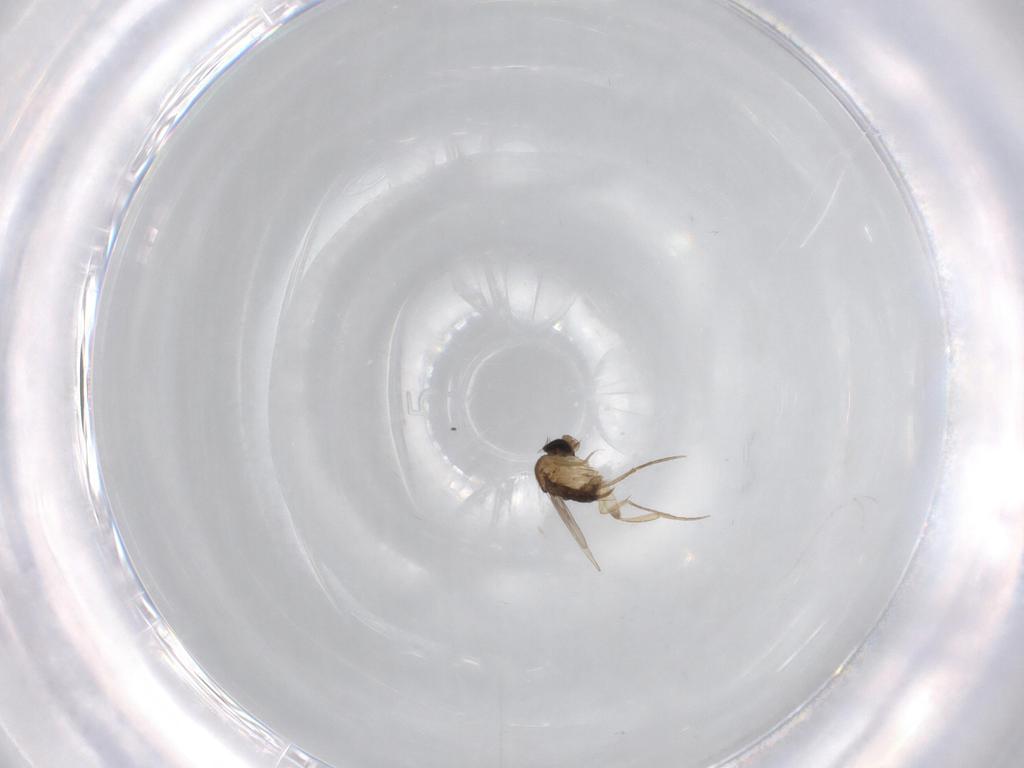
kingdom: Animalia
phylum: Arthropoda
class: Insecta
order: Diptera
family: Phoridae
